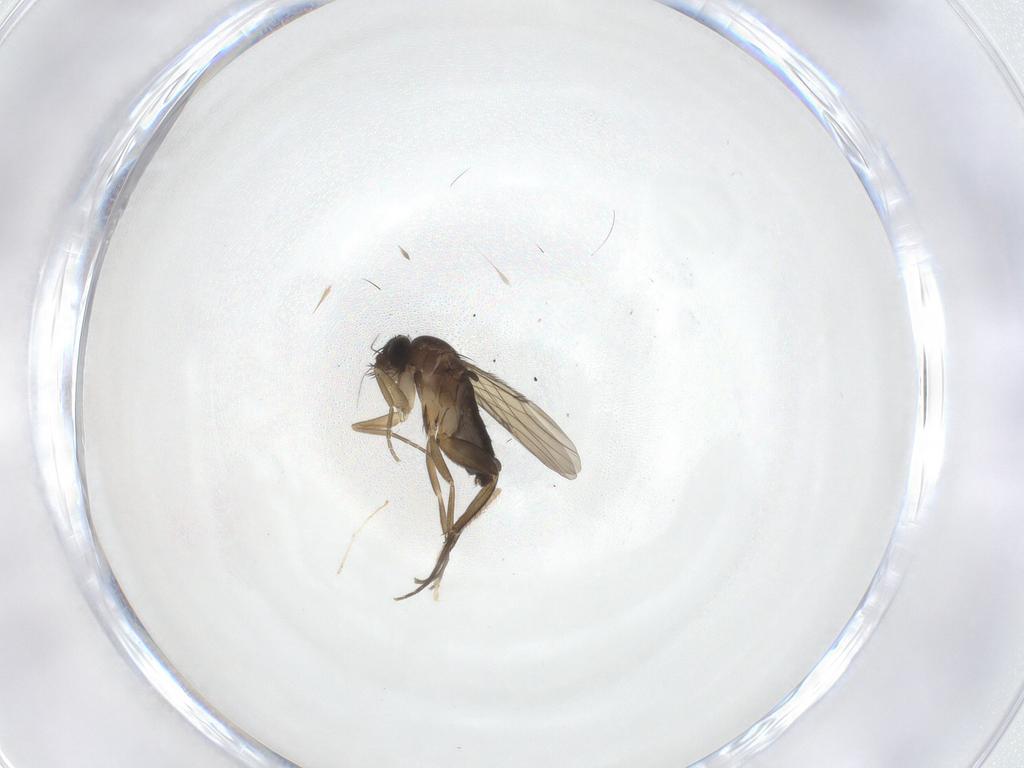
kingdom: Animalia
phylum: Arthropoda
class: Insecta
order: Diptera
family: Phoridae
